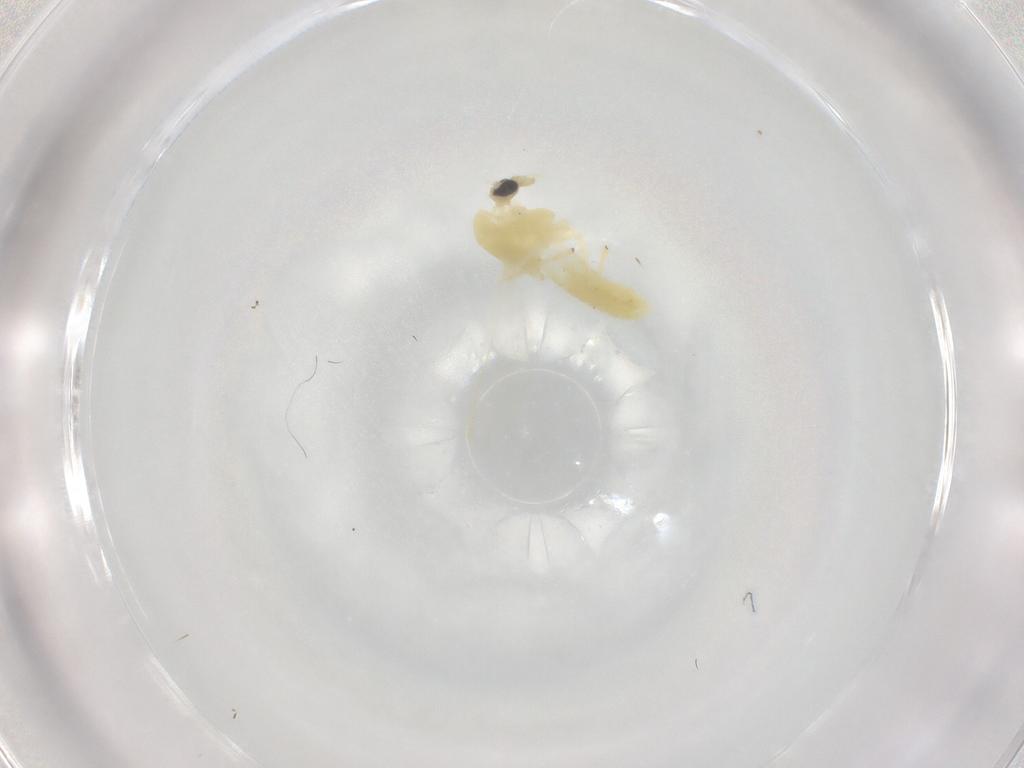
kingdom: Animalia
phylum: Arthropoda
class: Insecta
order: Diptera
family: Chironomidae
